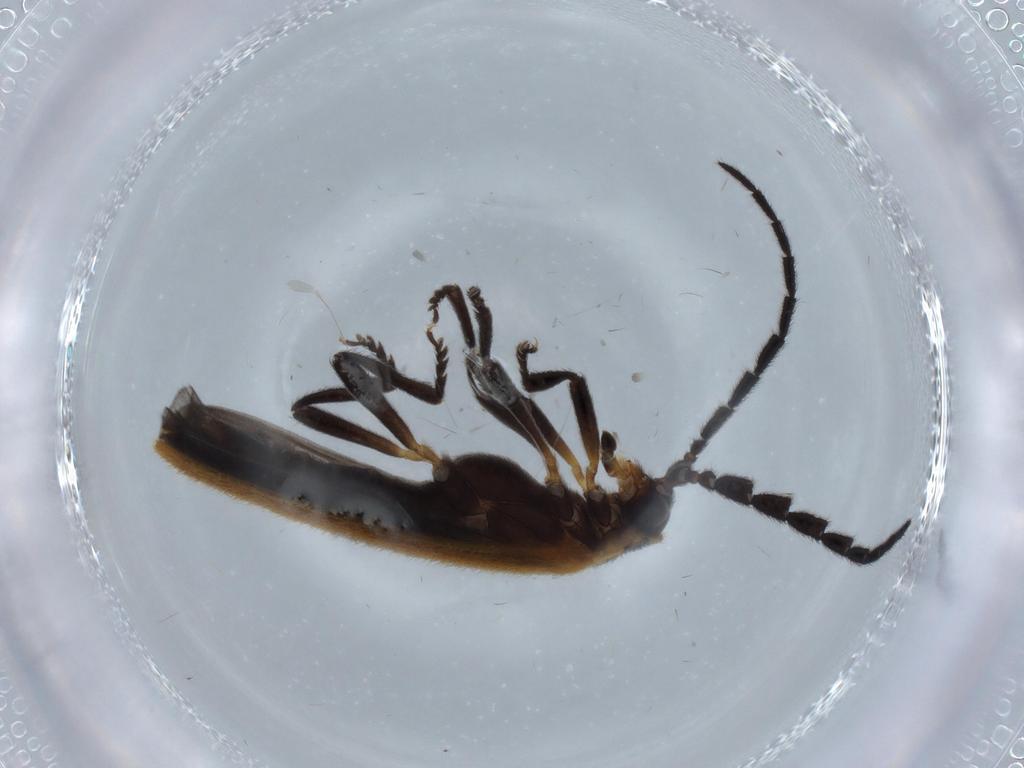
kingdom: Animalia
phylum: Arthropoda
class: Insecta
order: Coleoptera
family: Lycidae
